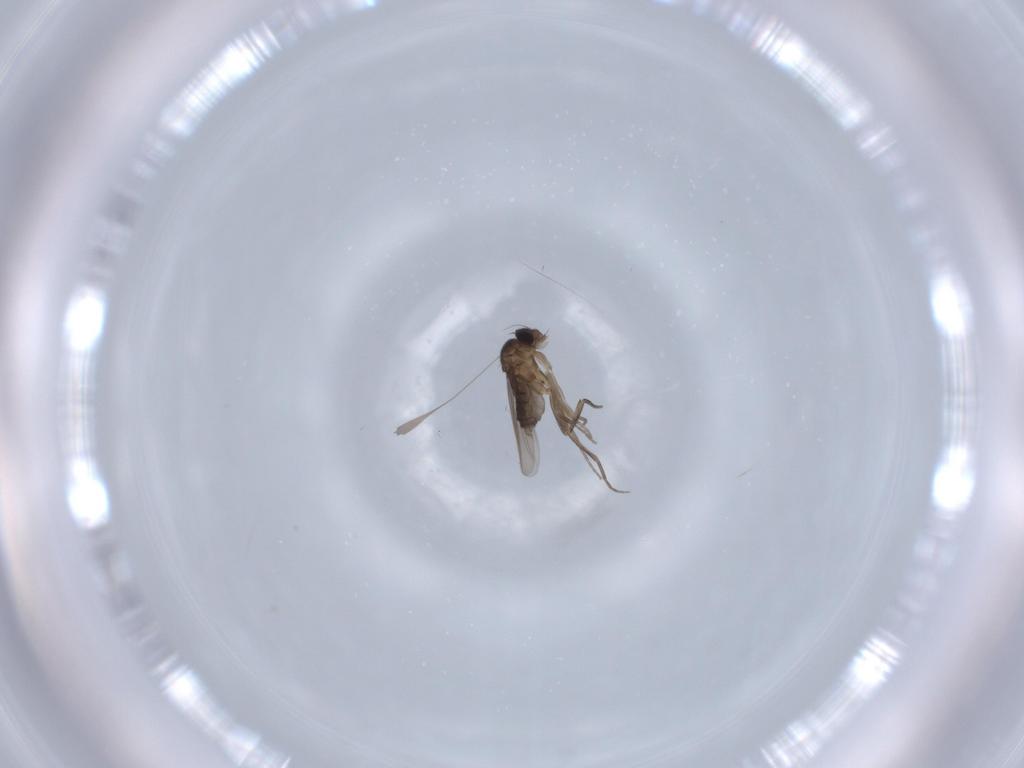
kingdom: Animalia
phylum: Arthropoda
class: Insecta
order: Diptera
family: Phoridae
